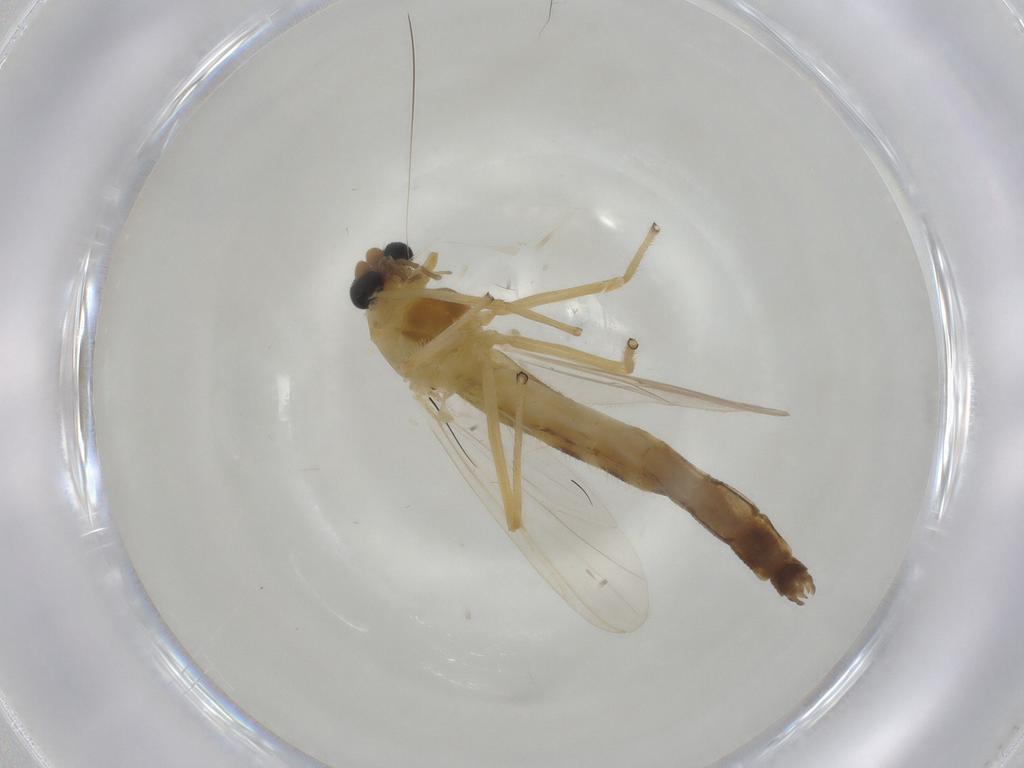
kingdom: Animalia
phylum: Arthropoda
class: Insecta
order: Diptera
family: Chironomidae
